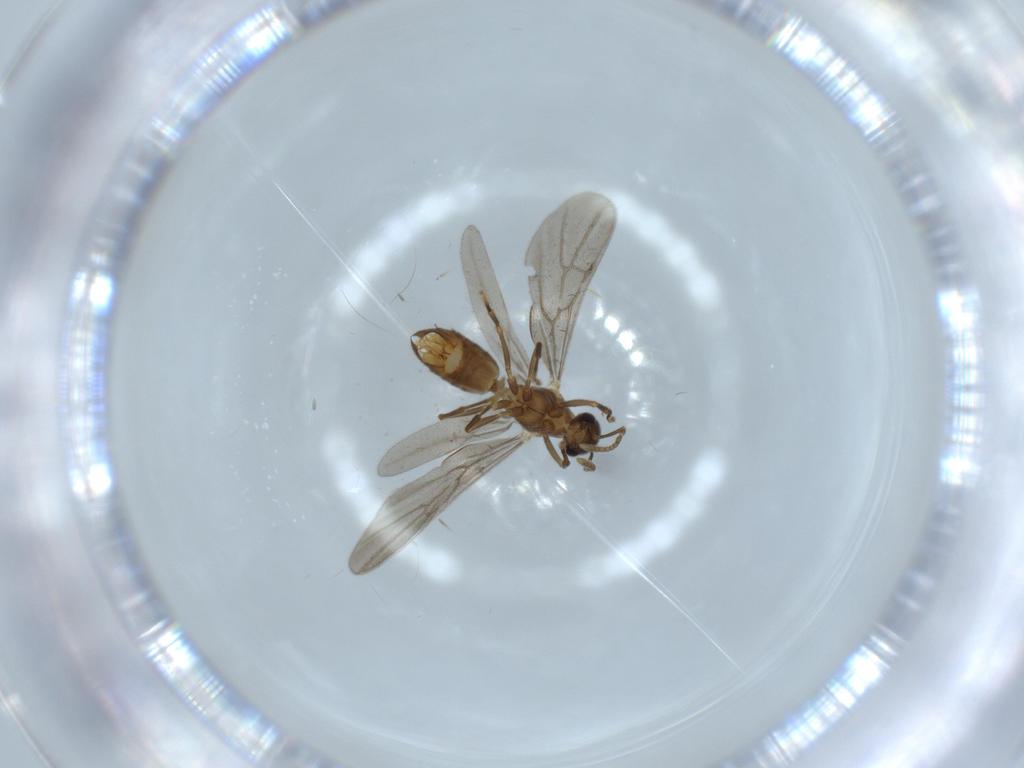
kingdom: Animalia
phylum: Arthropoda
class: Insecta
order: Hymenoptera
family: Formicidae
